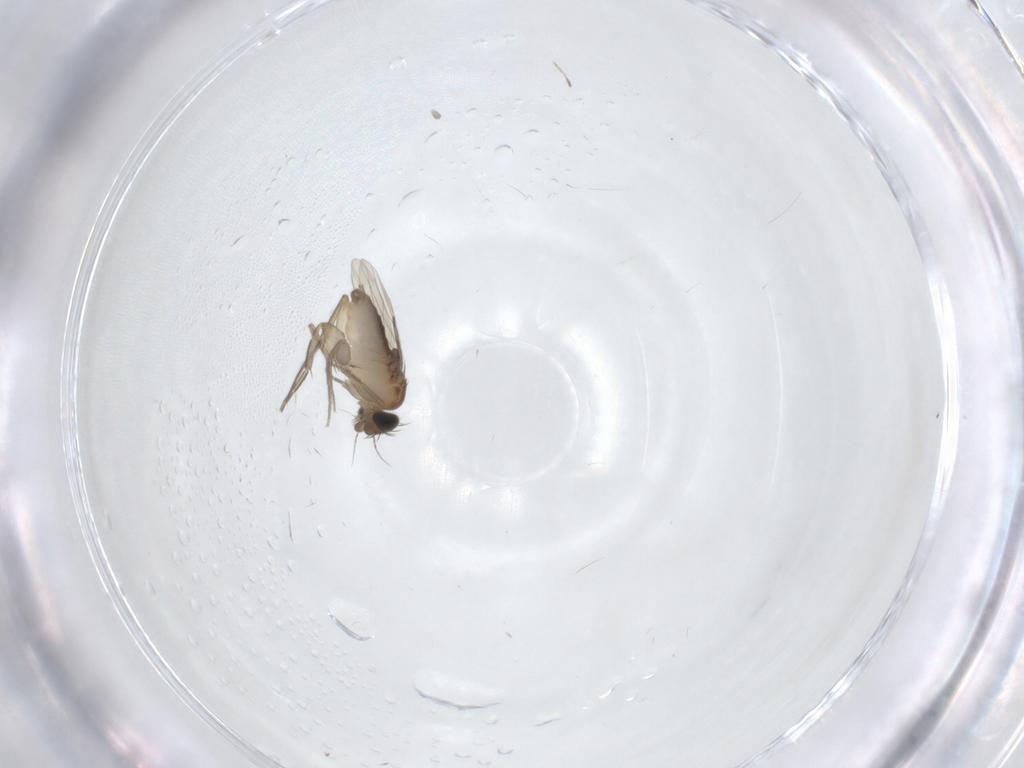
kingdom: Animalia
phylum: Arthropoda
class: Insecta
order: Diptera
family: Phoridae
